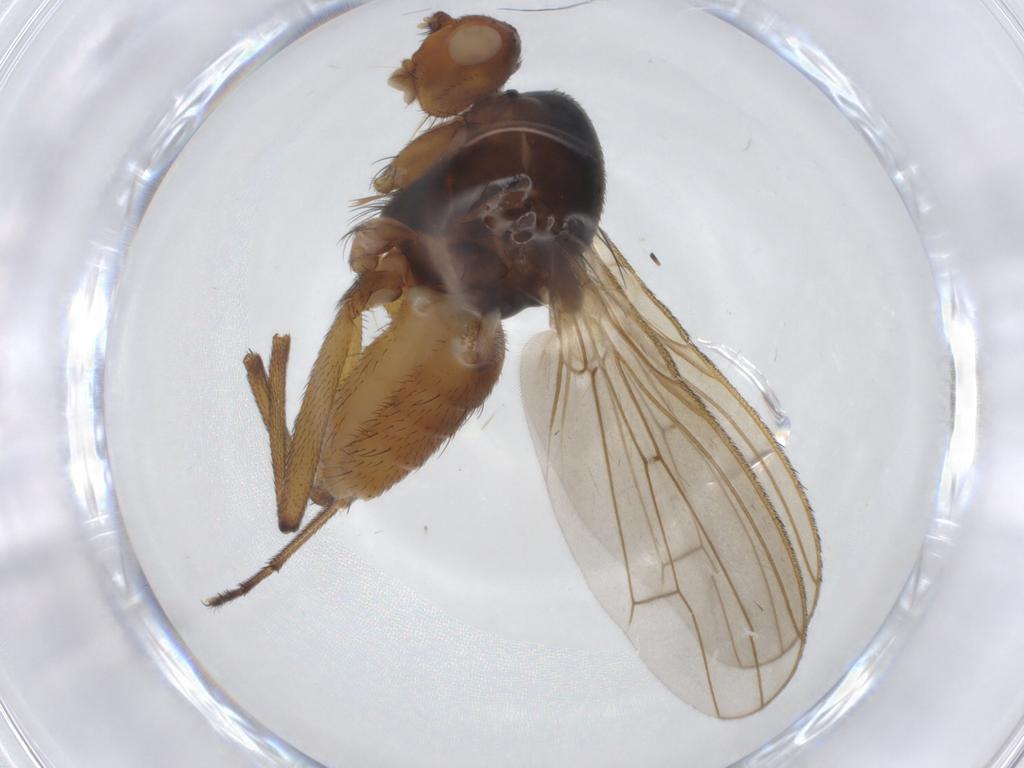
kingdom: Animalia
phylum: Arthropoda
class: Insecta
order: Diptera
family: Heleomyzidae
